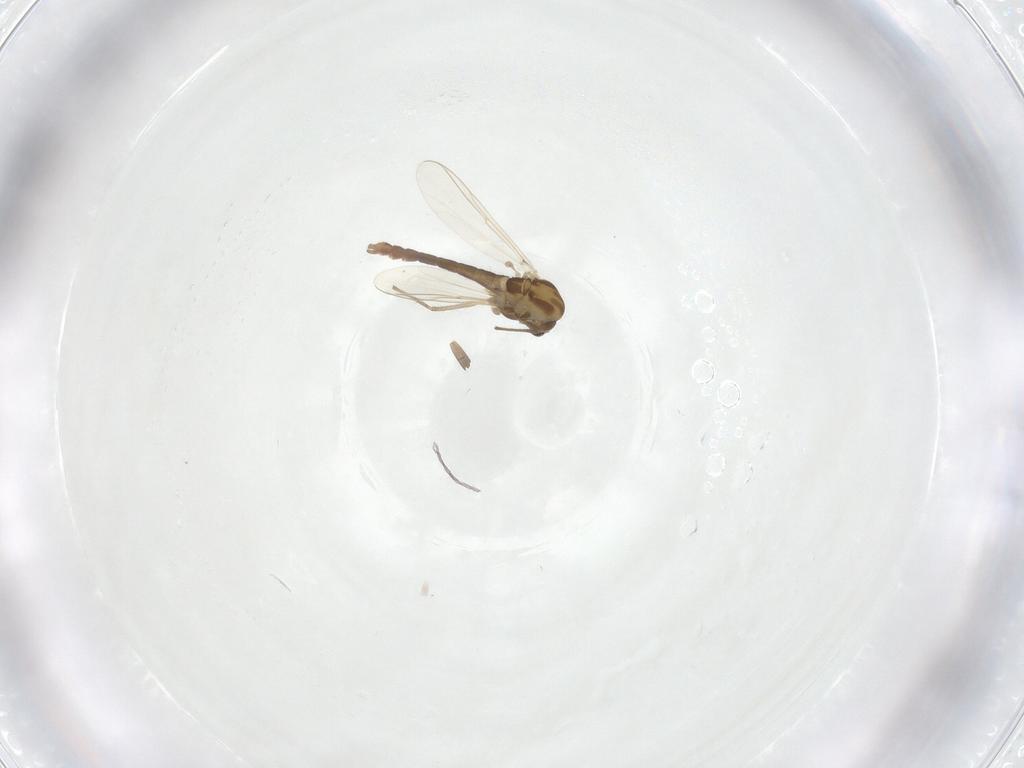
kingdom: Animalia
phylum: Arthropoda
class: Insecta
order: Diptera
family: Chironomidae
